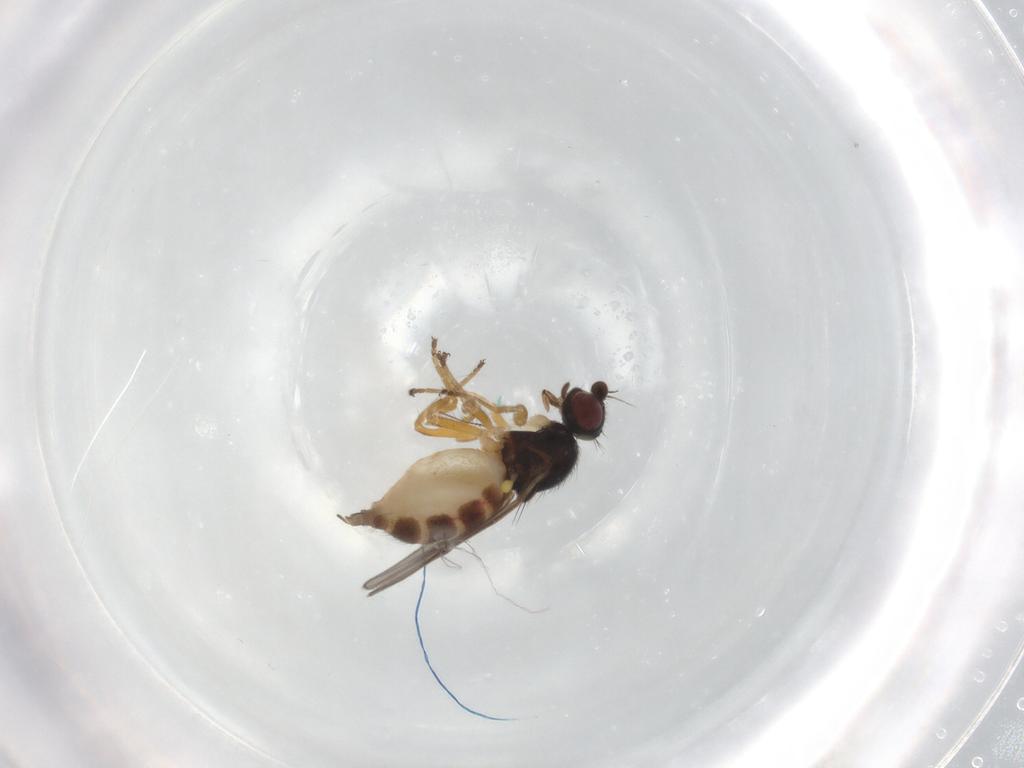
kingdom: Animalia
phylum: Arthropoda
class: Insecta
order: Diptera
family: Chloropidae
